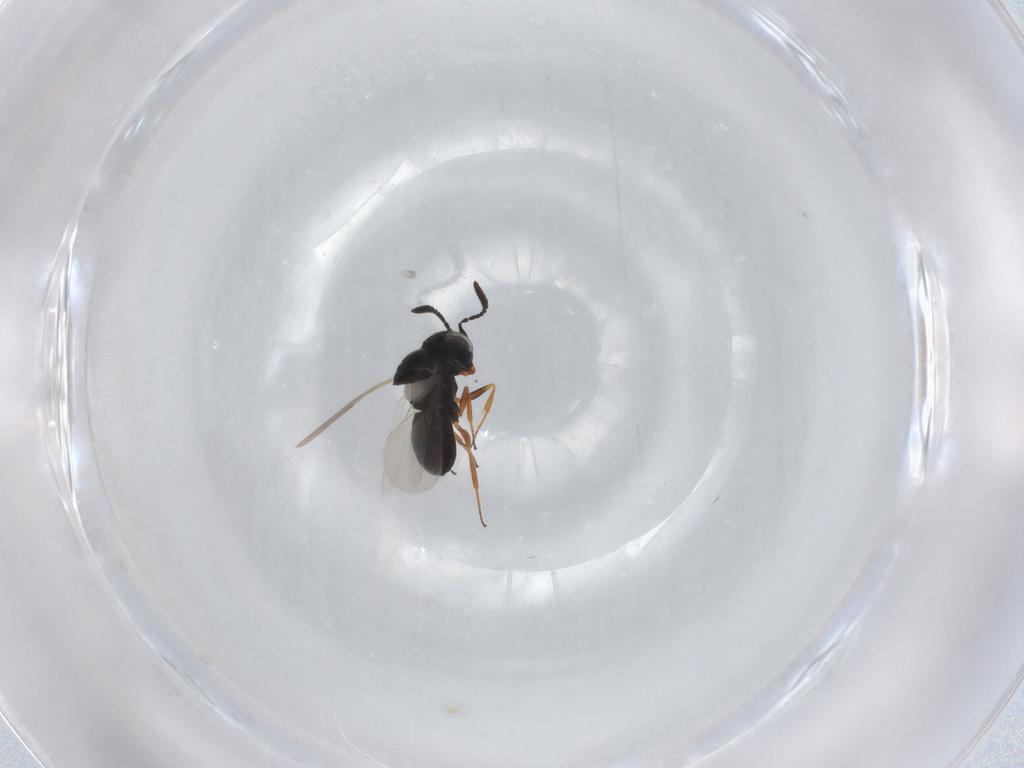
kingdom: Animalia
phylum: Arthropoda
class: Insecta
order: Hymenoptera
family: Scelionidae
